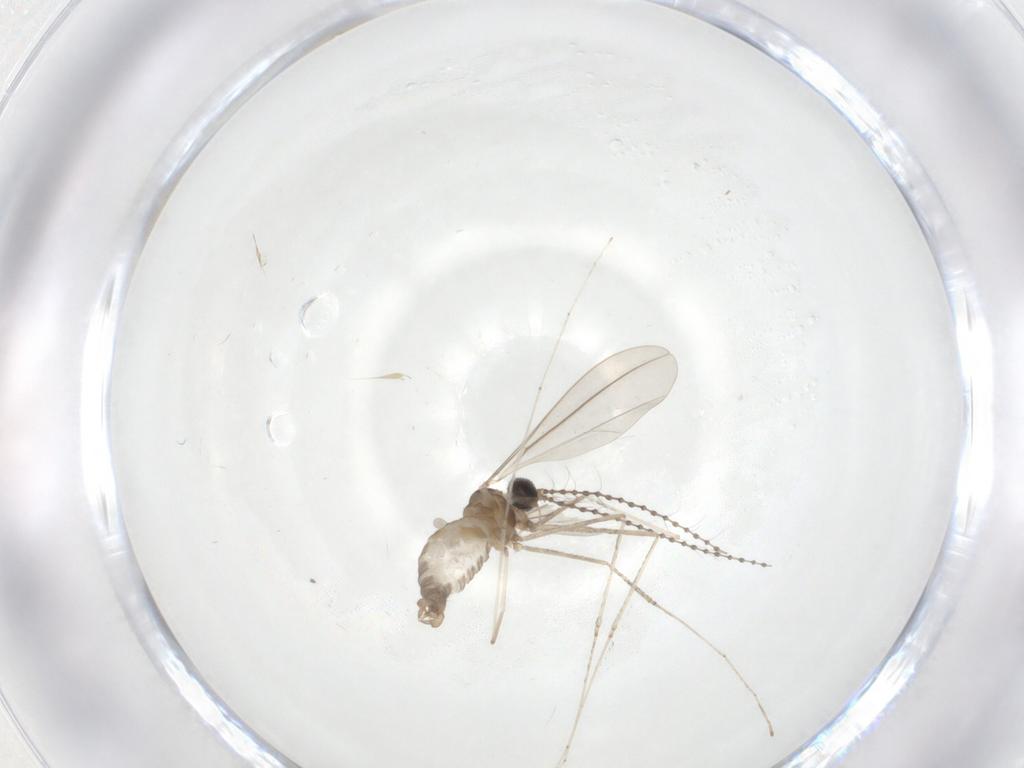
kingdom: Animalia
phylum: Arthropoda
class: Insecta
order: Diptera
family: Cecidomyiidae
